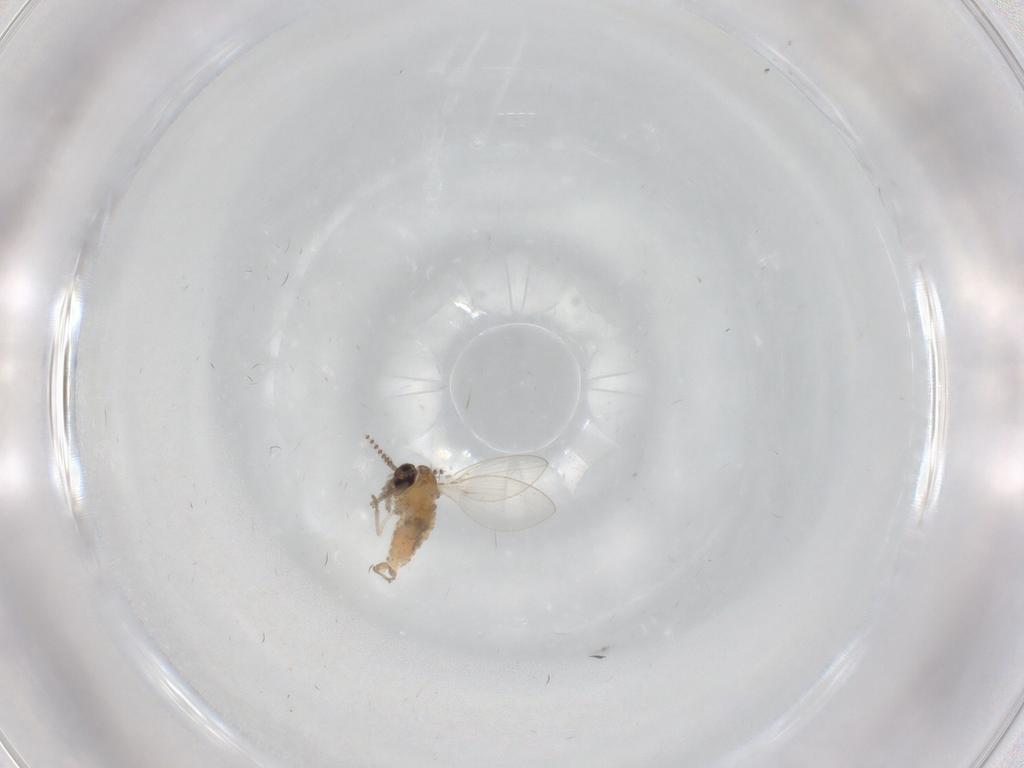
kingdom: Animalia
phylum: Arthropoda
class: Insecta
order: Diptera
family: Psychodidae
